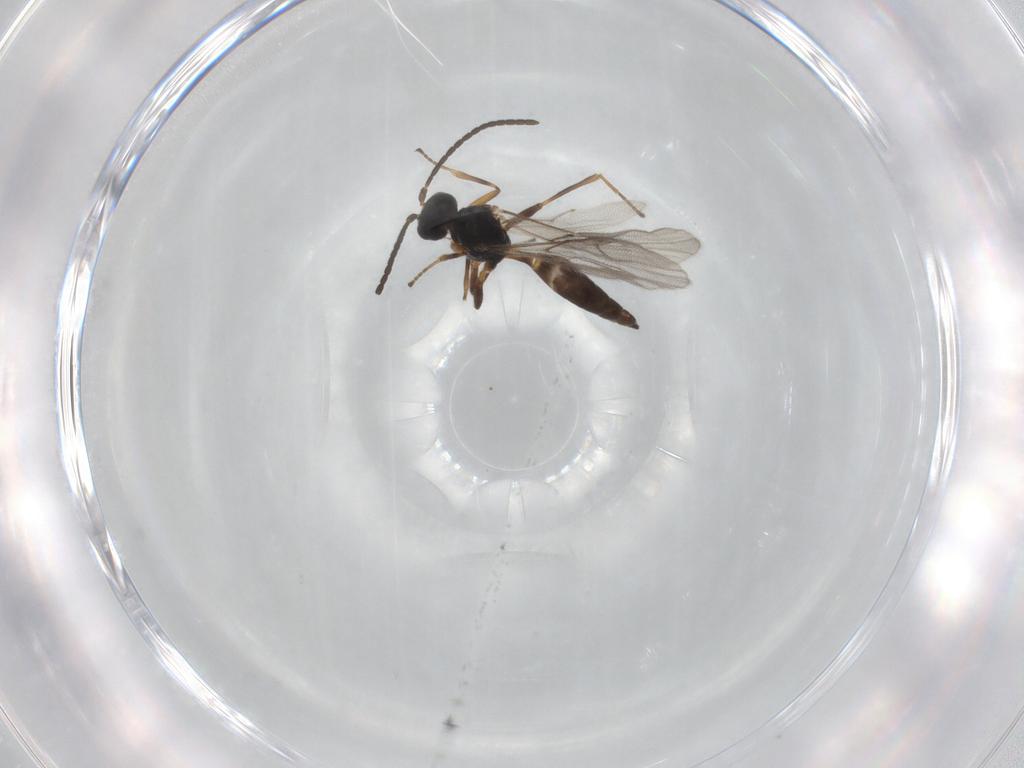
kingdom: Animalia
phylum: Arthropoda
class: Insecta
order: Hymenoptera
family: Braconidae
